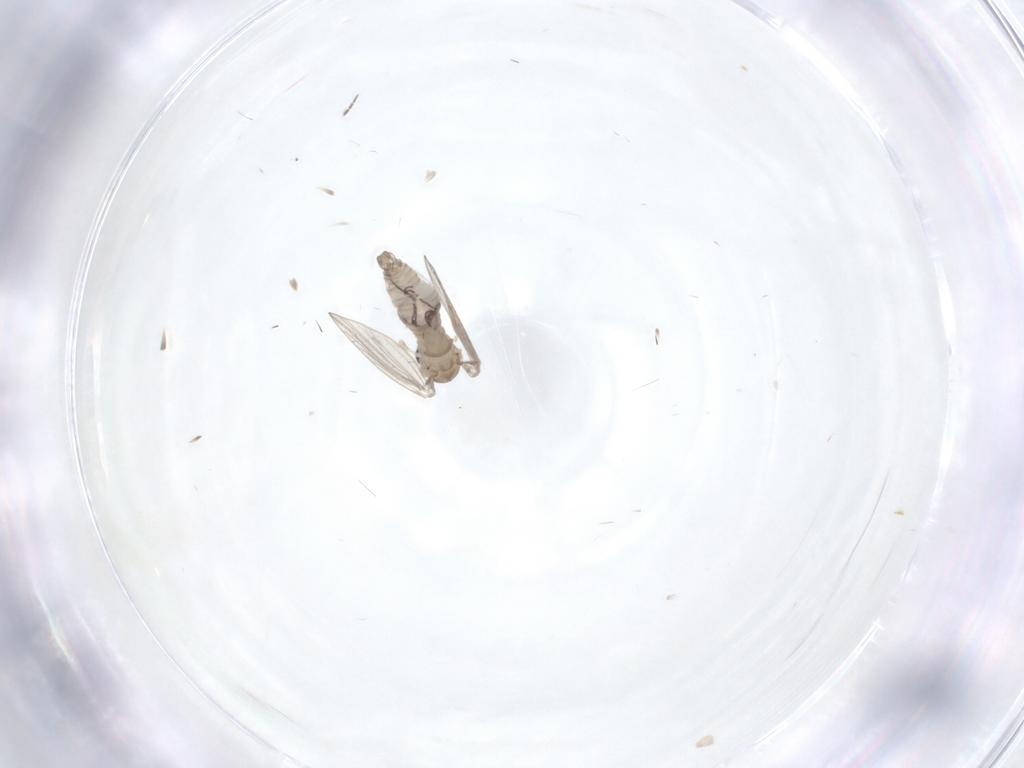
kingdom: Animalia
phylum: Arthropoda
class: Insecta
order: Diptera
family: Psychodidae
